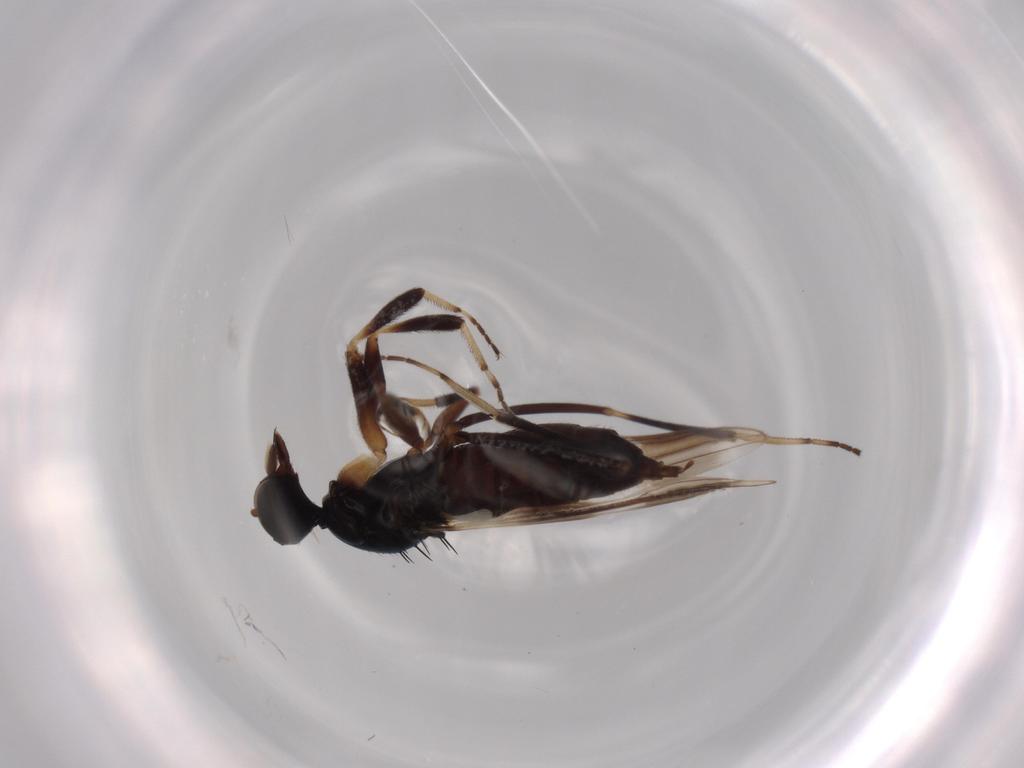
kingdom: Animalia
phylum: Arthropoda
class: Insecta
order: Diptera
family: Hybotidae
